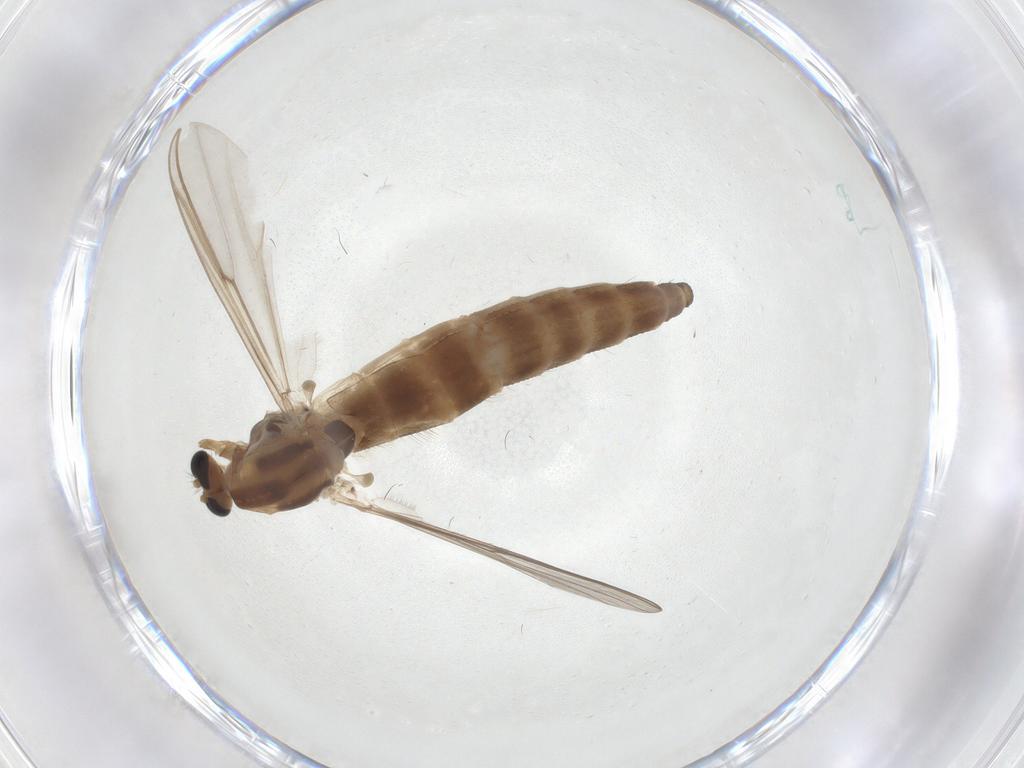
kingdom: Animalia
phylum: Arthropoda
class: Insecta
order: Diptera
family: Chironomidae
